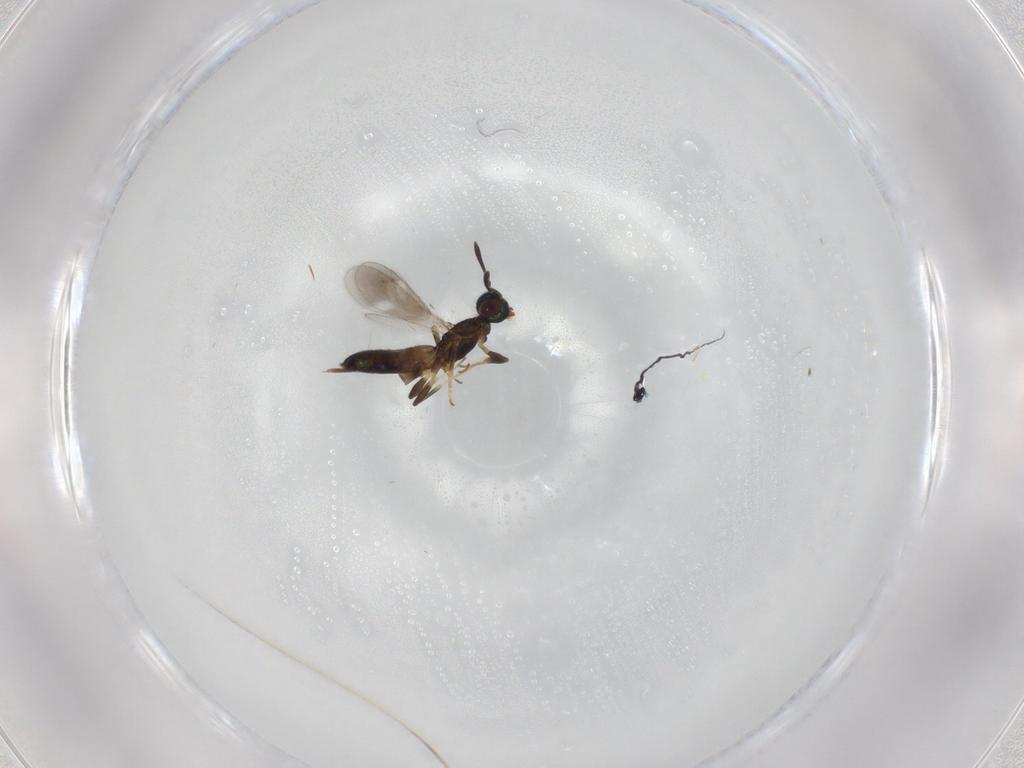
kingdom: Animalia
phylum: Arthropoda
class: Insecta
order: Hymenoptera
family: Eupelmidae
